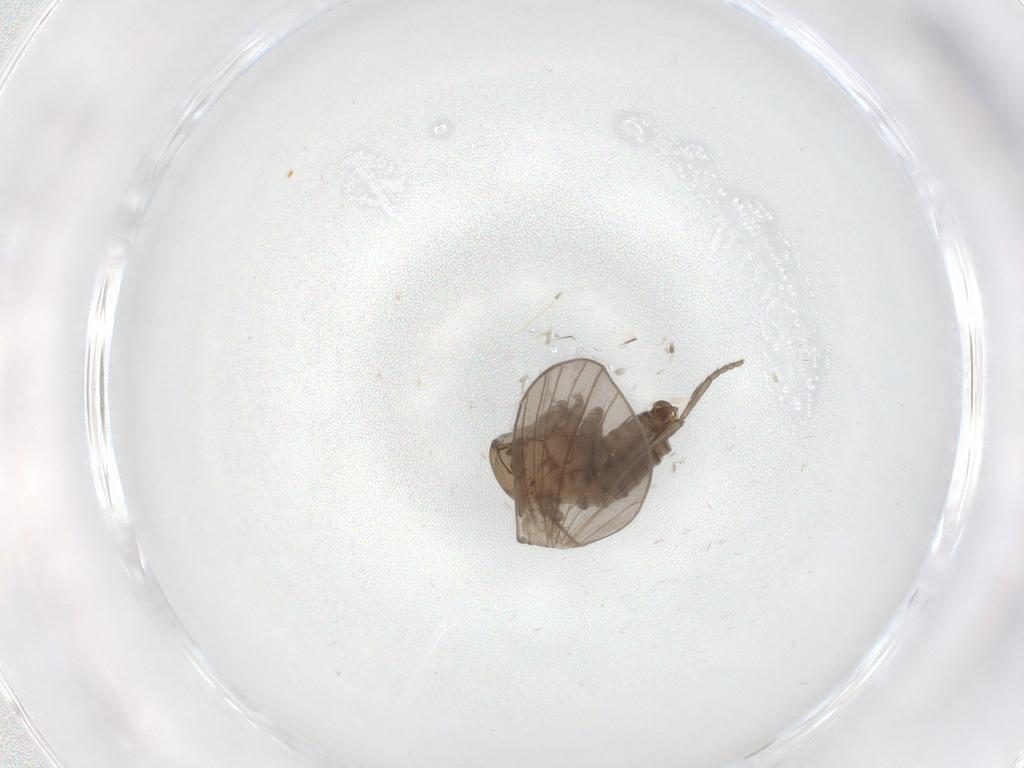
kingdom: Animalia
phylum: Arthropoda
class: Insecta
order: Diptera
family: Psychodidae
